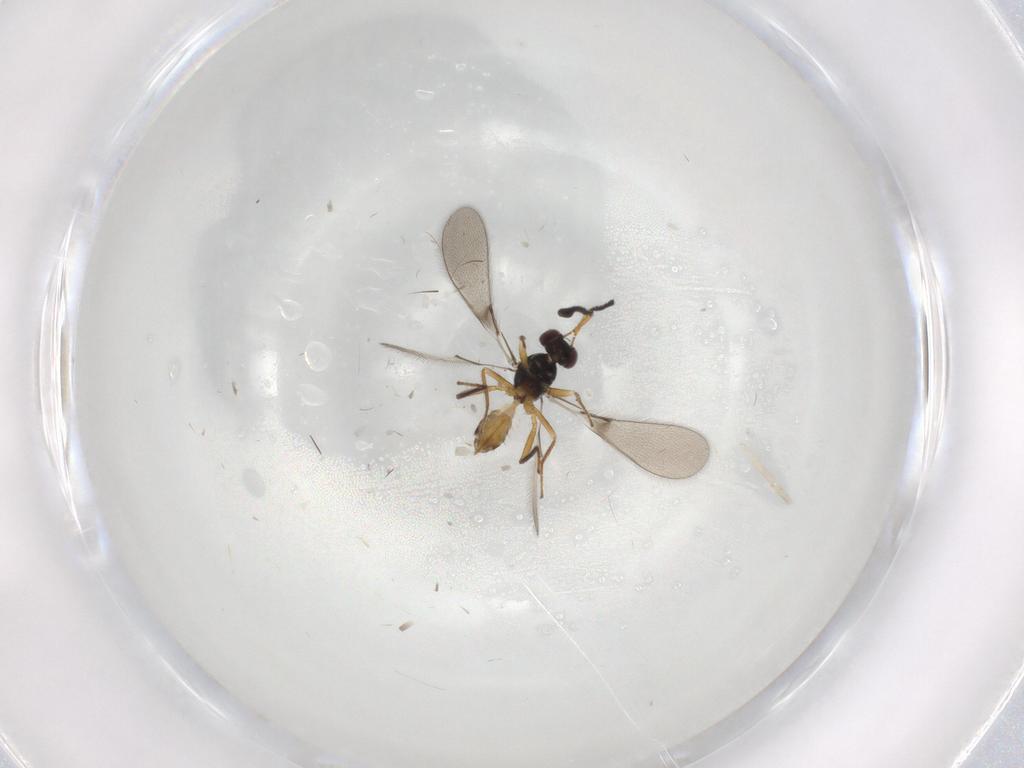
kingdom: Animalia
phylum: Arthropoda
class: Insecta
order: Hymenoptera
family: Mymaridae
